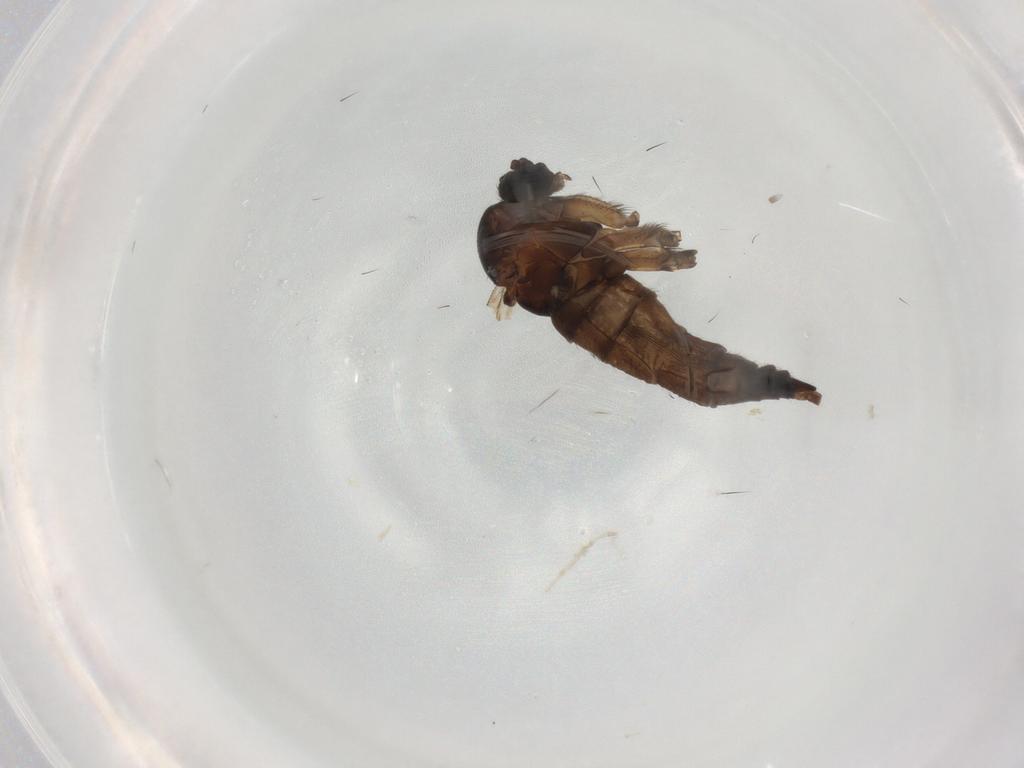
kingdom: Animalia
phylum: Arthropoda
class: Insecta
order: Diptera
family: Sciaridae
